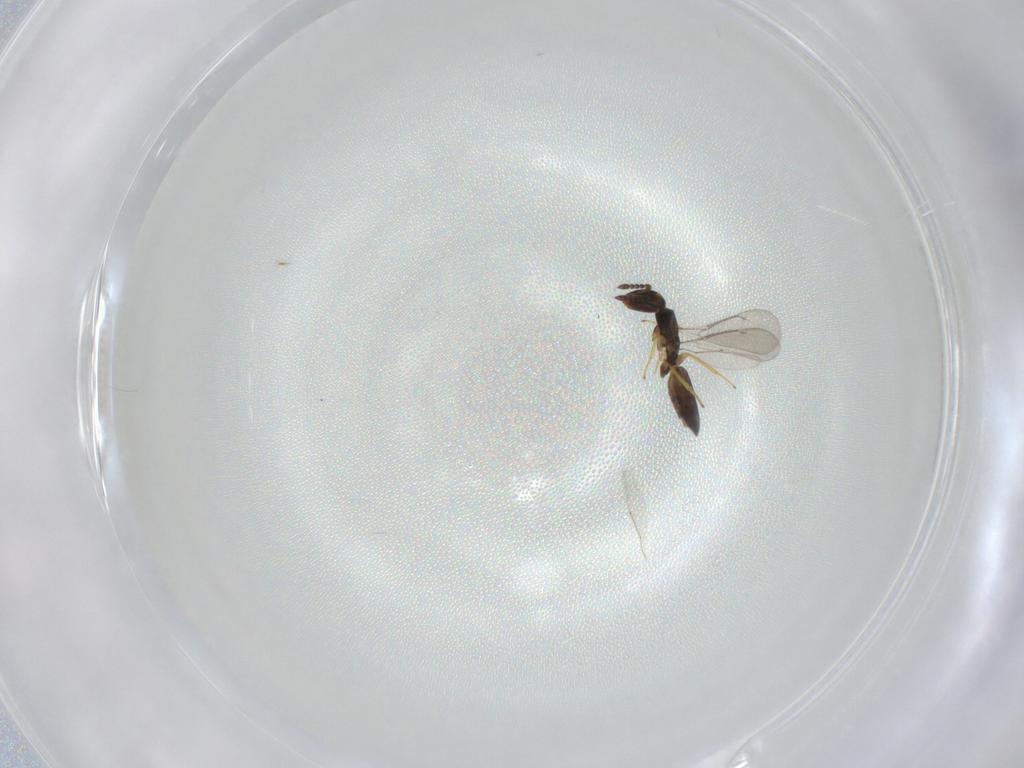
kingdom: Animalia
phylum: Arthropoda
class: Insecta
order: Hymenoptera
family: Eulophidae
